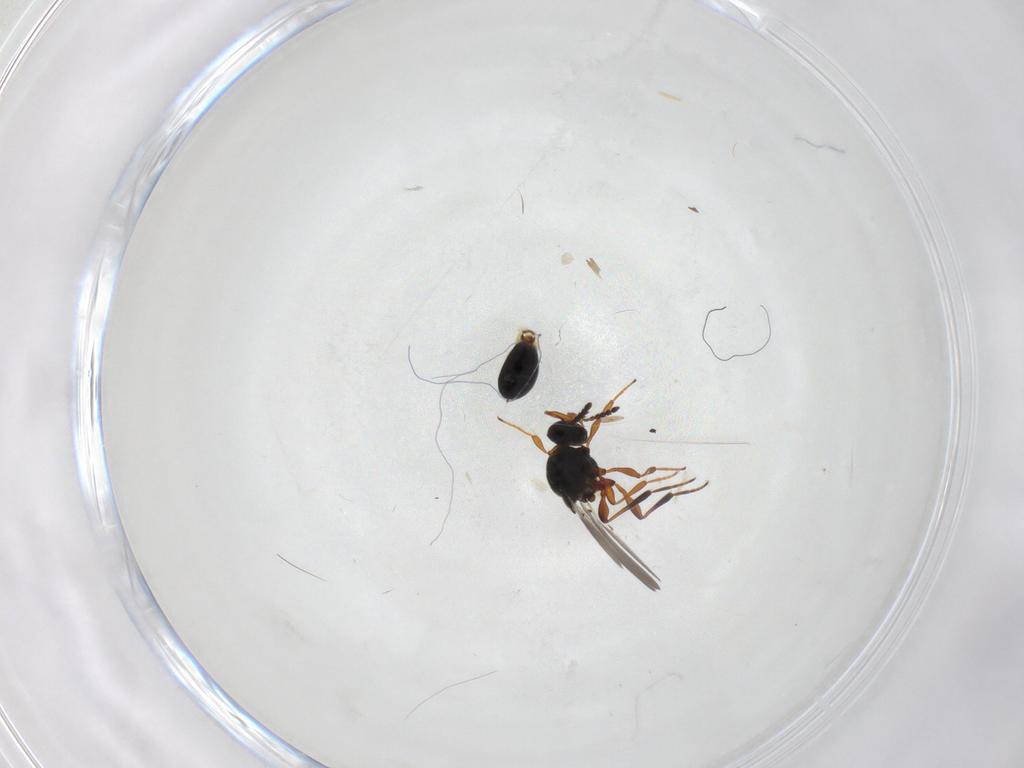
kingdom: Animalia
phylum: Arthropoda
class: Insecta
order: Hymenoptera
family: Platygastridae
